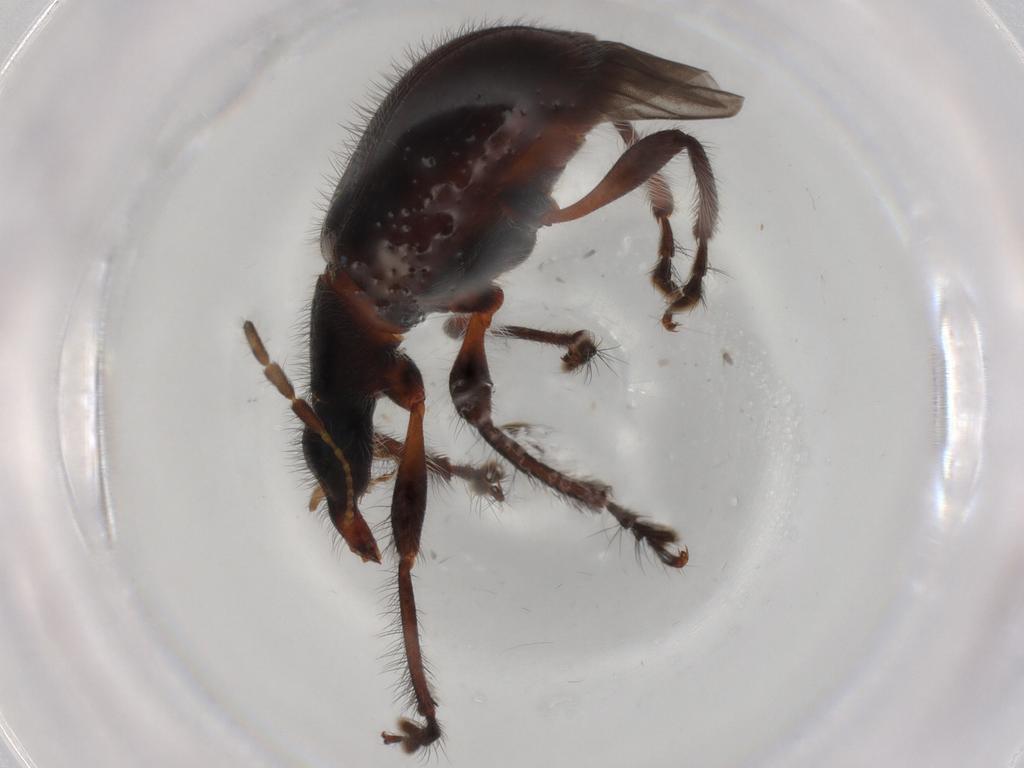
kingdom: Animalia
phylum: Arthropoda
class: Insecta
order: Coleoptera
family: Attelabidae
